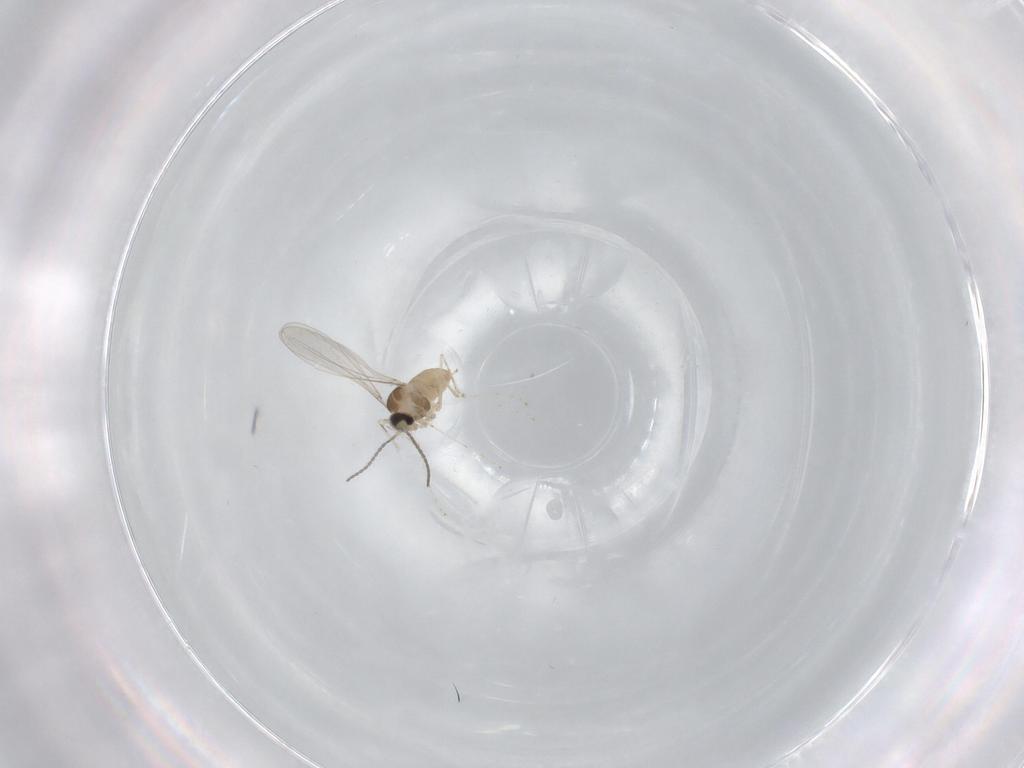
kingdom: Animalia
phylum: Arthropoda
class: Insecta
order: Diptera
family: Cecidomyiidae
